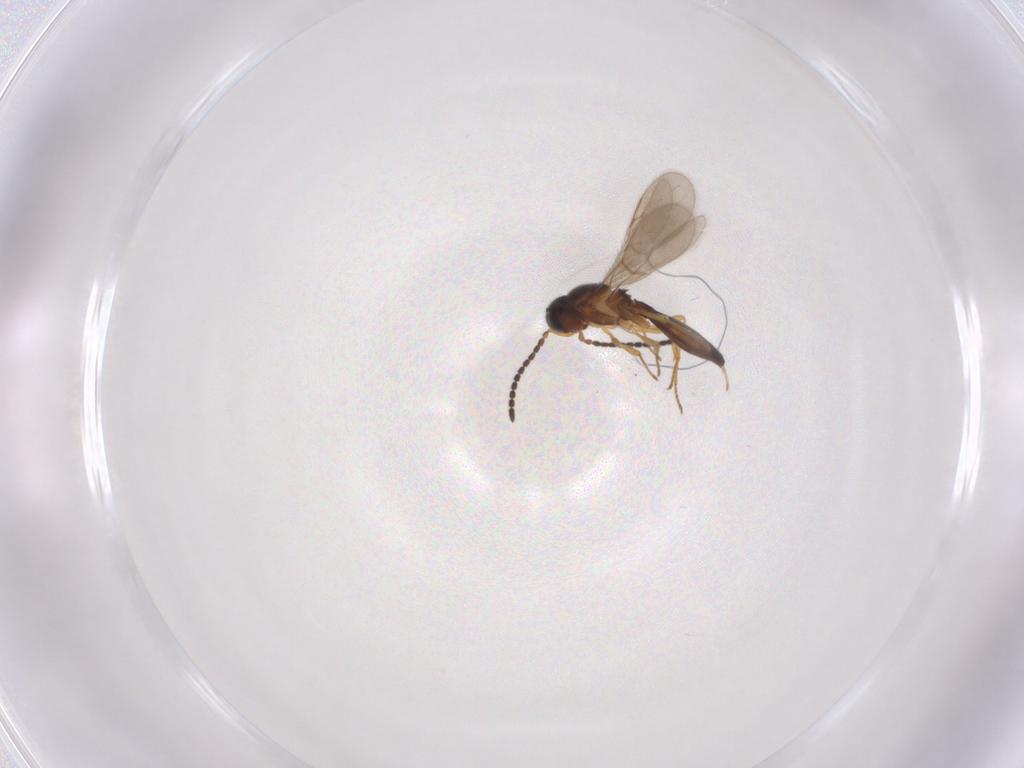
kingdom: Animalia
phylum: Arthropoda
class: Insecta
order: Hymenoptera
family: Scelionidae
